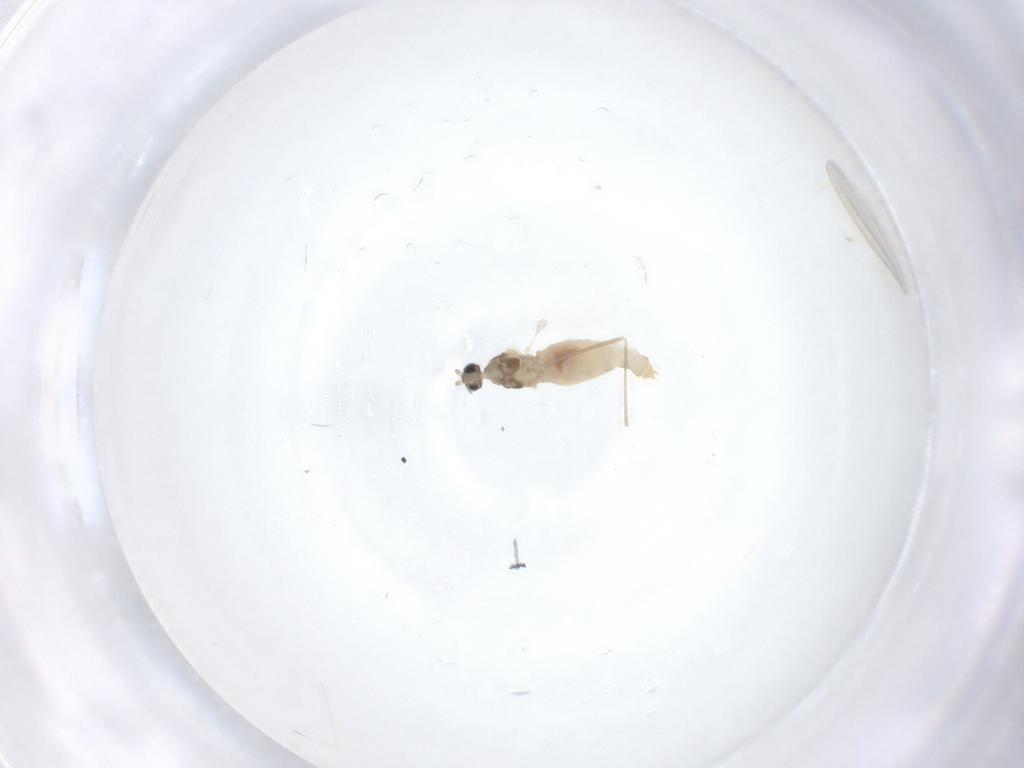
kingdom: Animalia
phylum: Arthropoda
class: Insecta
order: Diptera
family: Cecidomyiidae
